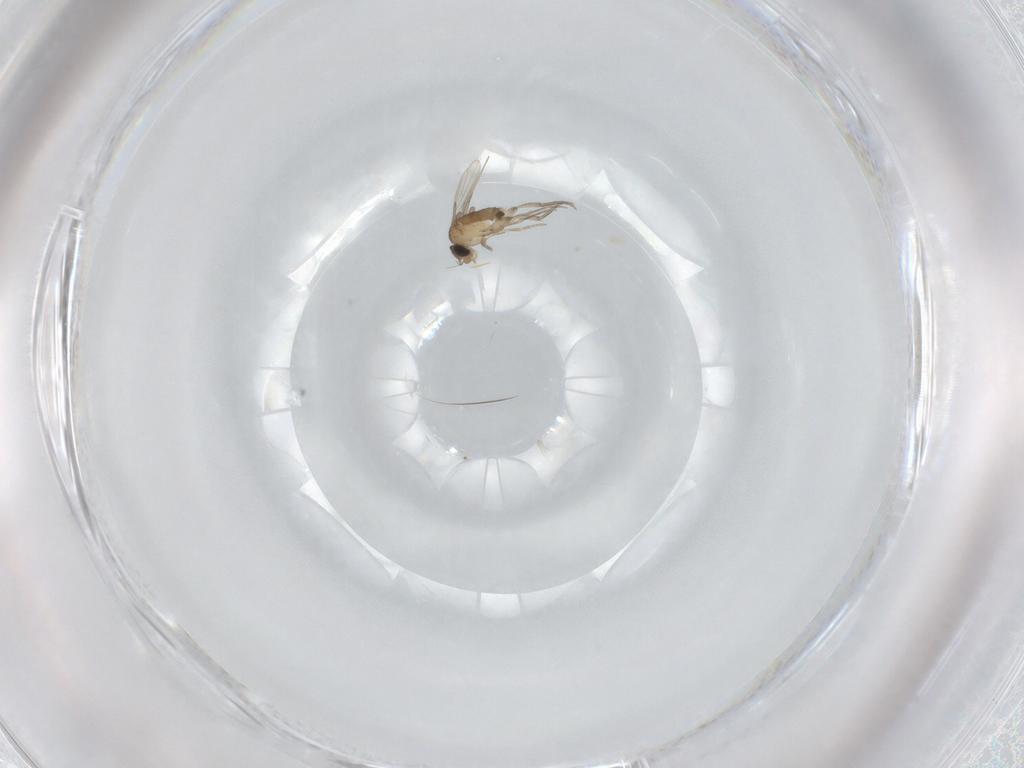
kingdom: Animalia
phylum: Arthropoda
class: Insecta
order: Diptera
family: Phoridae
